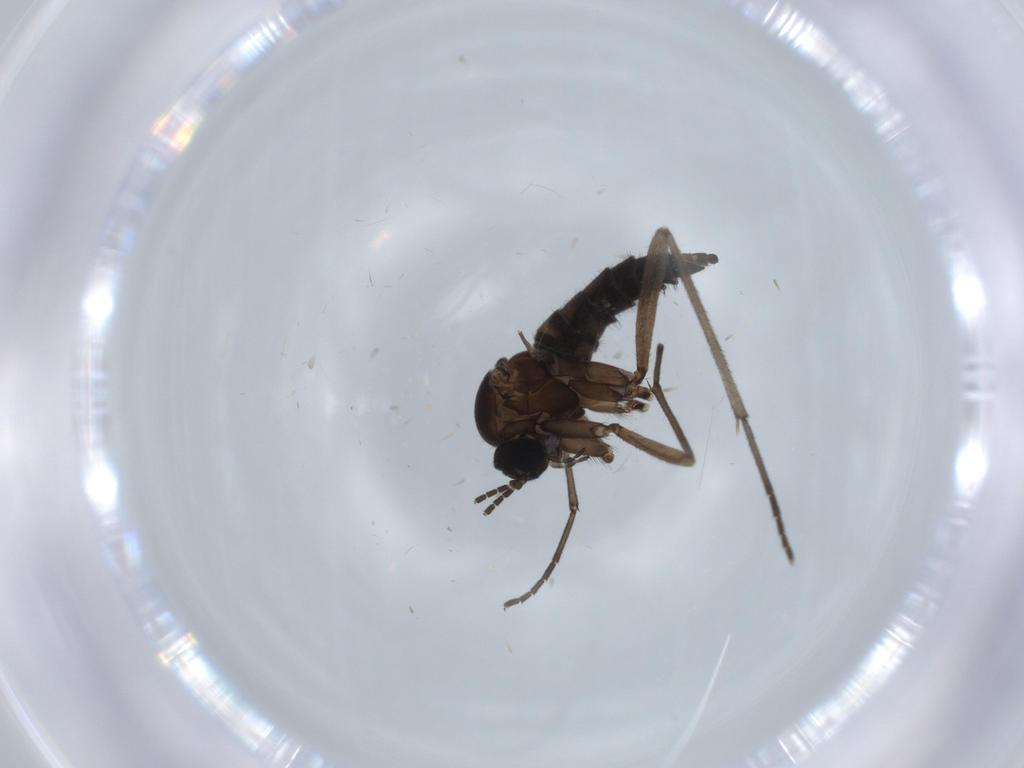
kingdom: Animalia
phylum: Arthropoda
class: Insecta
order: Diptera
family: Sciaridae
